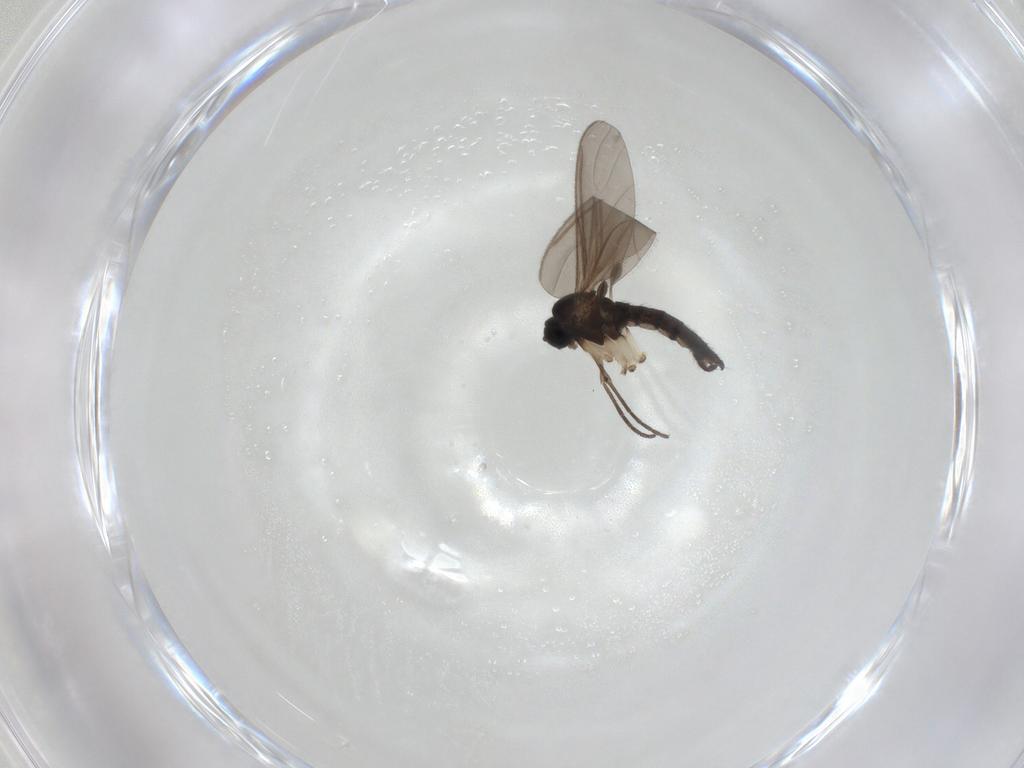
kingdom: Animalia
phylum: Arthropoda
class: Insecta
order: Diptera
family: Sciaridae
